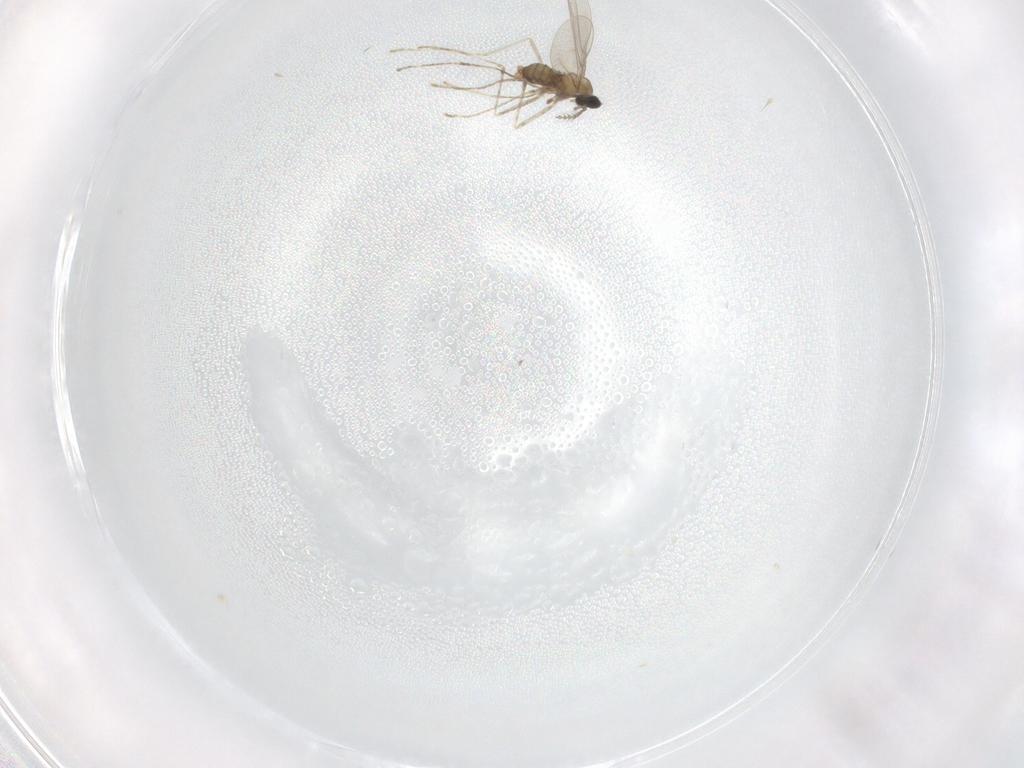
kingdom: Animalia
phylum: Arthropoda
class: Insecta
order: Diptera
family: Cecidomyiidae
